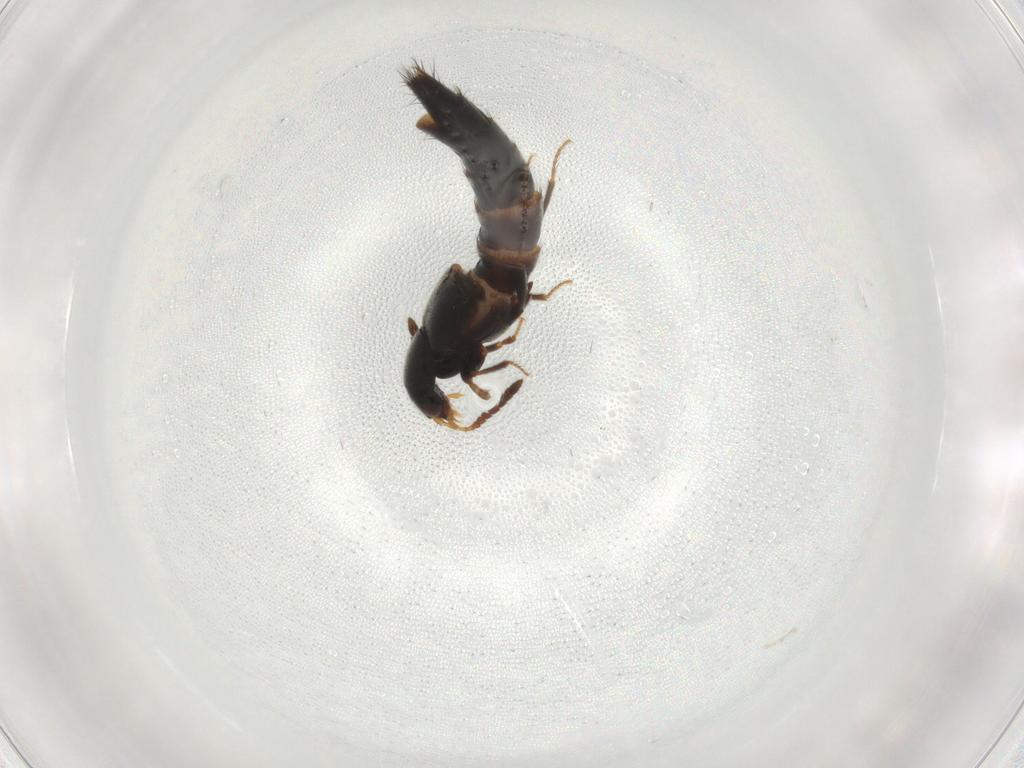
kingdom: Animalia
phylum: Arthropoda
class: Insecta
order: Coleoptera
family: Staphylinidae
